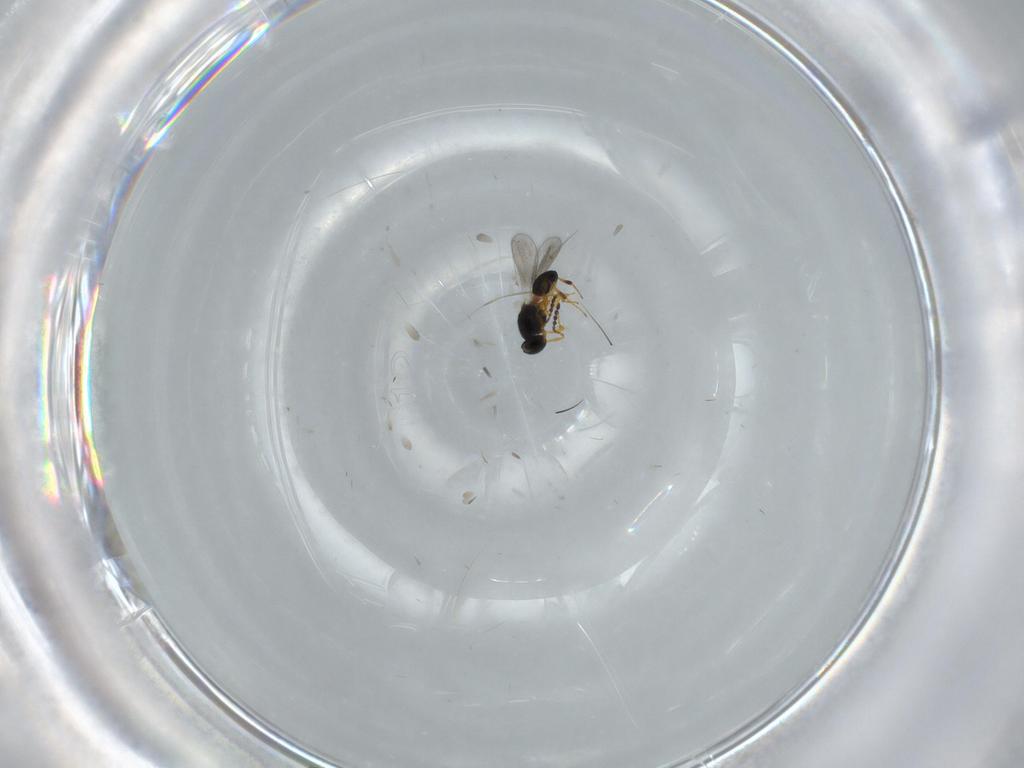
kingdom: Animalia
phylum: Arthropoda
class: Insecta
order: Hymenoptera
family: Platygastridae
